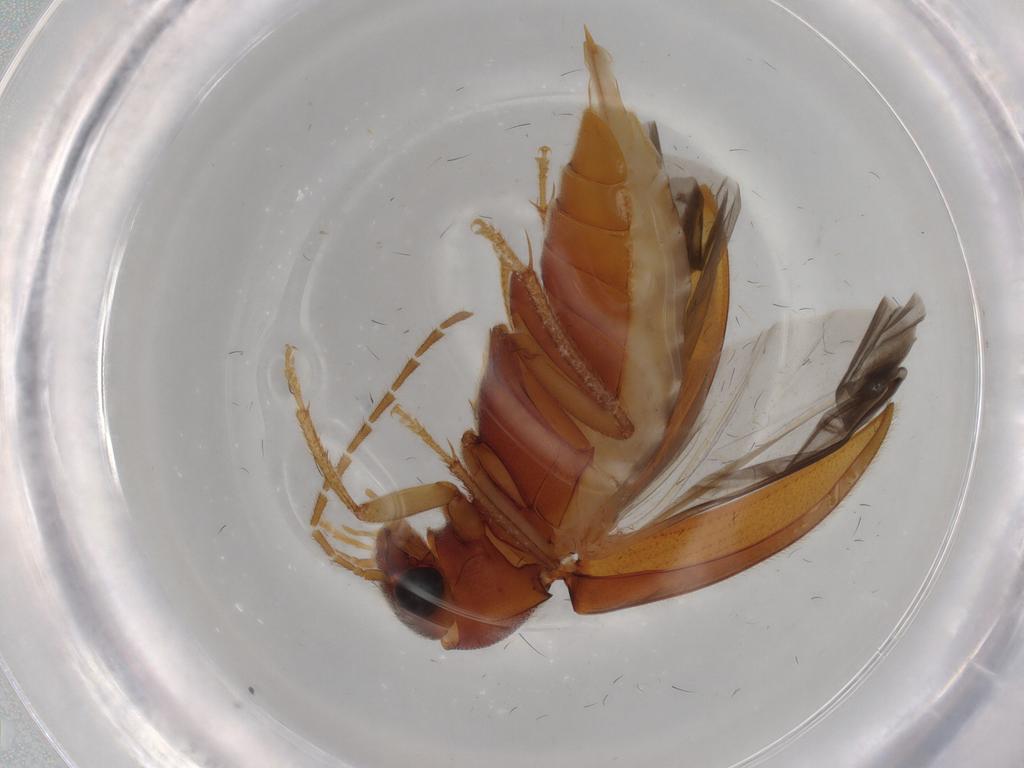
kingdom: Animalia
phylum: Arthropoda
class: Insecta
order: Coleoptera
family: Ptilodactylidae
